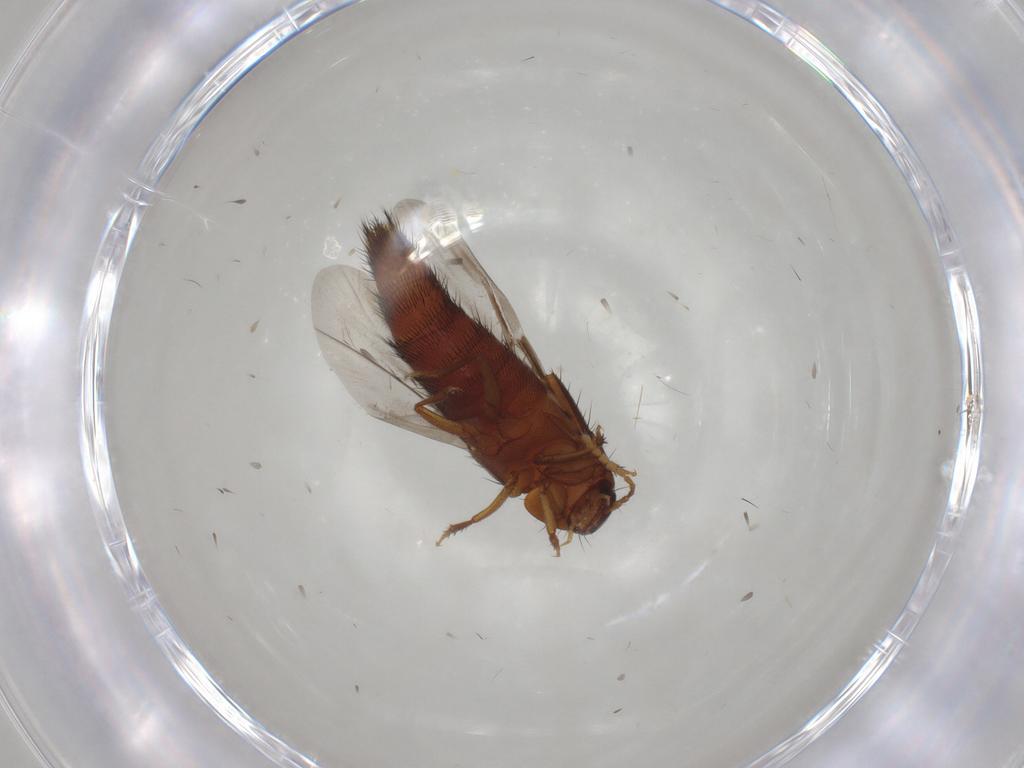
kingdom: Animalia
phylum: Arthropoda
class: Insecta
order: Coleoptera
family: Staphylinidae
